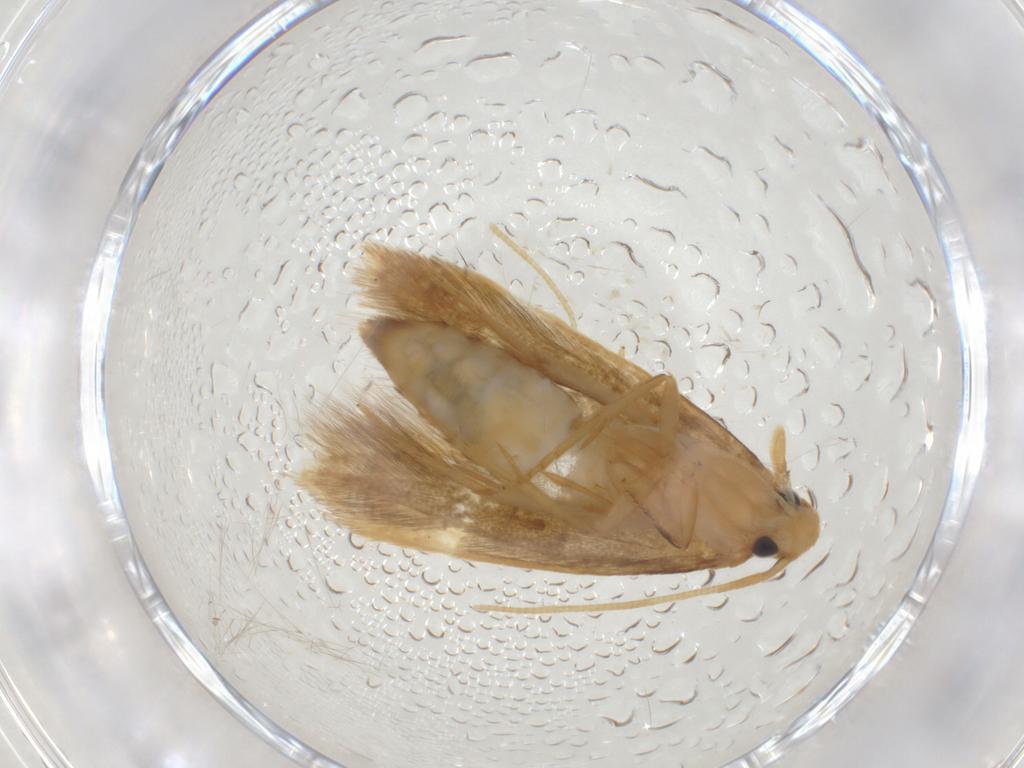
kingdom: Animalia
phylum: Arthropoda
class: Insecta
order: Lepidoptera
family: Tineidae
